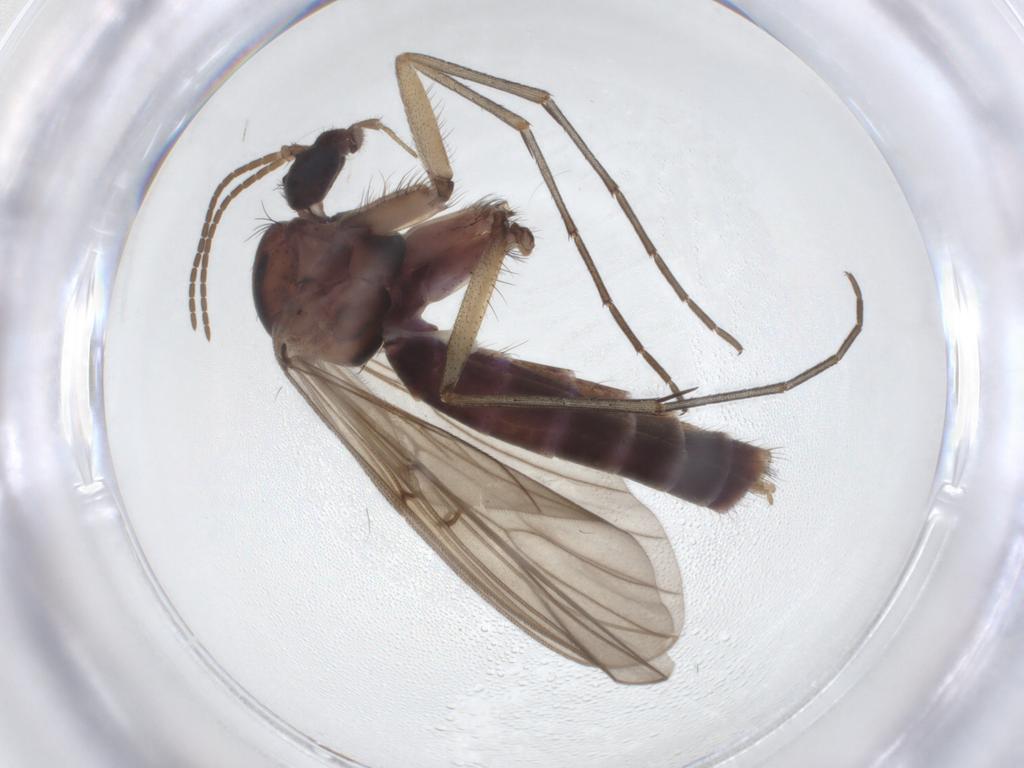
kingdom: Animalia
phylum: Arthropoda
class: Insecta
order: Diptera
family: Mycetophilidae
